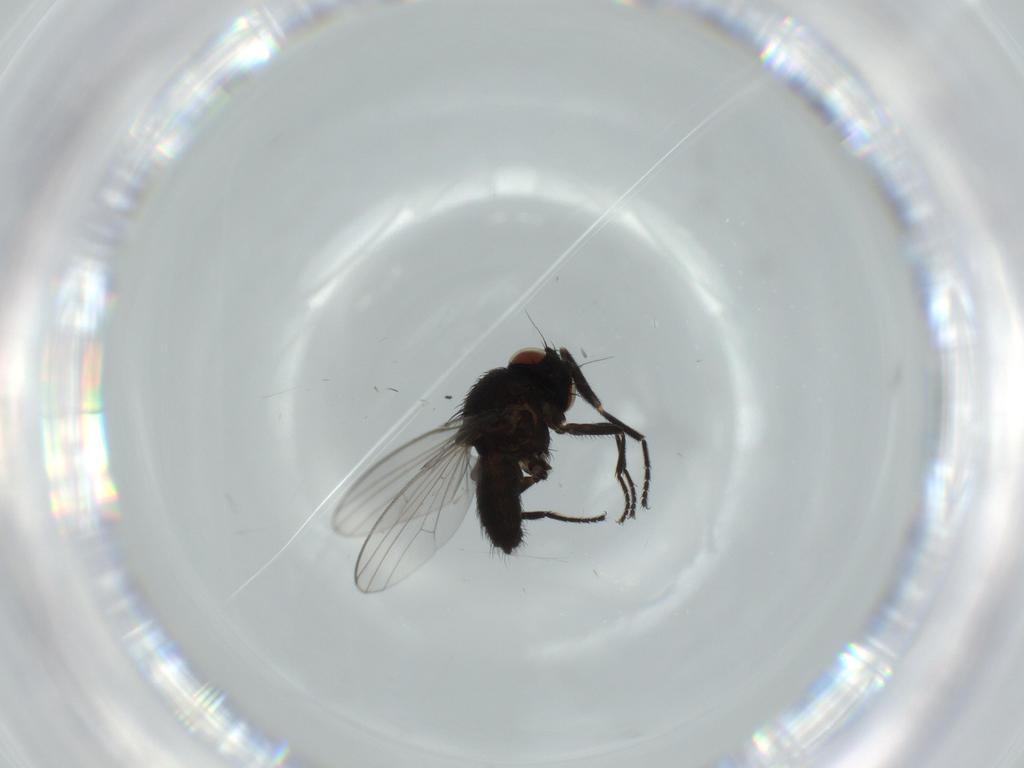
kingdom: Animalia
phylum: Arthropoda
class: Insecta
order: Diptera
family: Milichiidae
